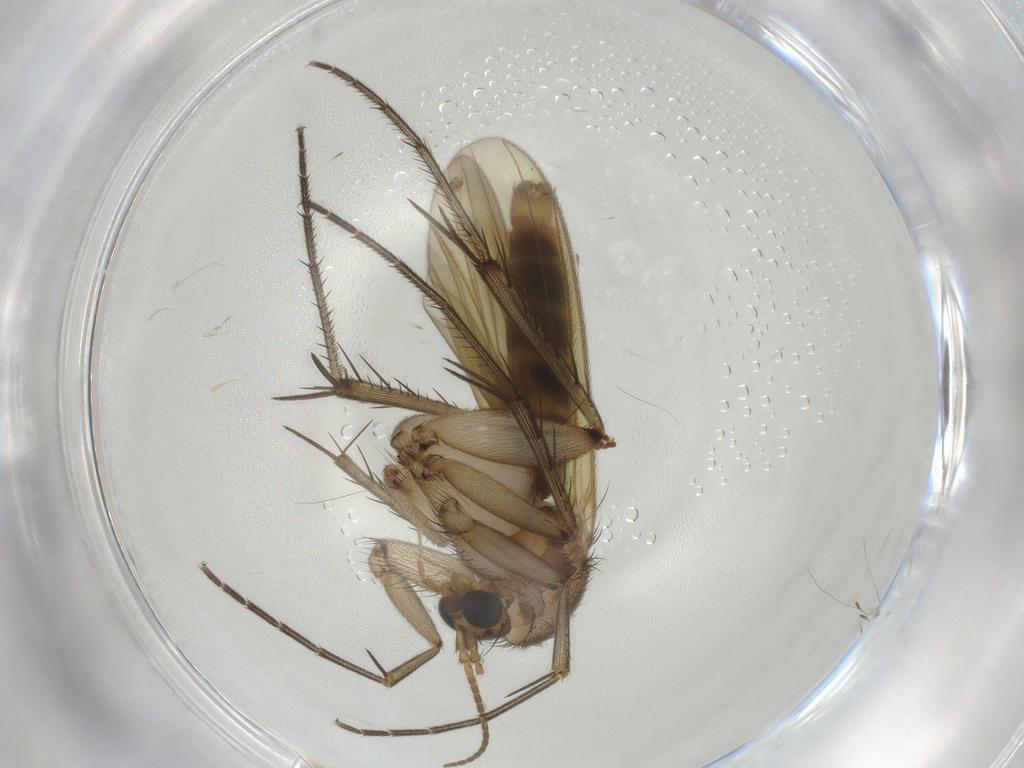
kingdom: Animalia
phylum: Arthropoda
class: Insecta
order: Diptera
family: Mycetophilidae
